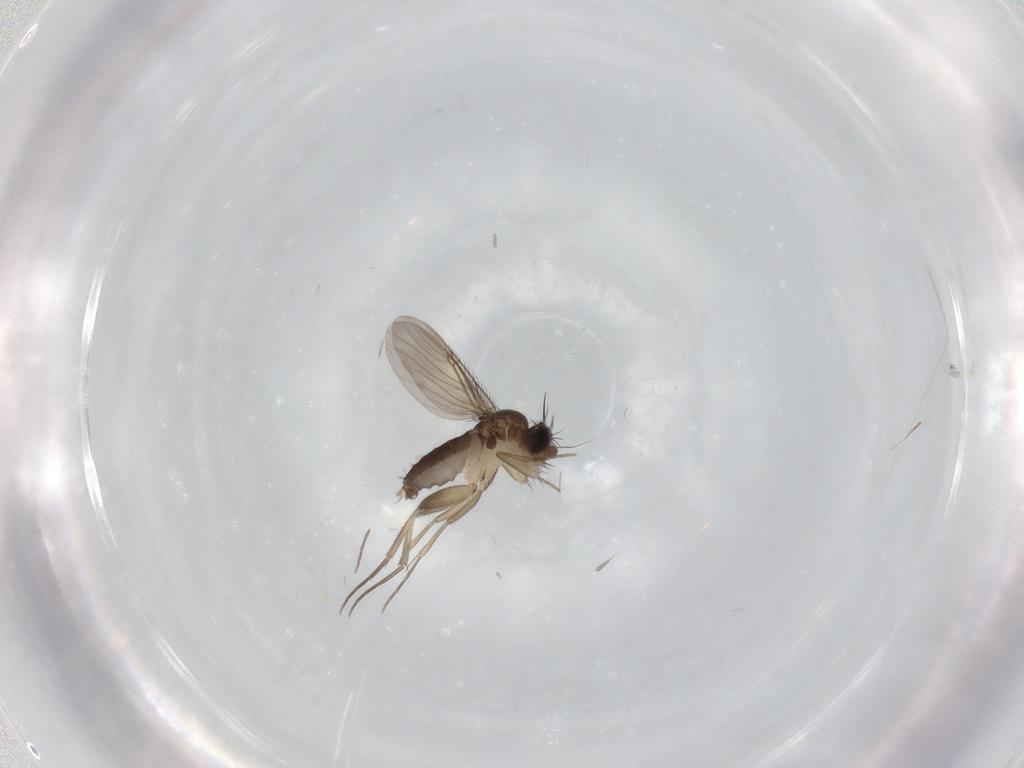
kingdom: Animalia
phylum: Arthropoda
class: Insecta
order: Diptera
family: Phoridae
